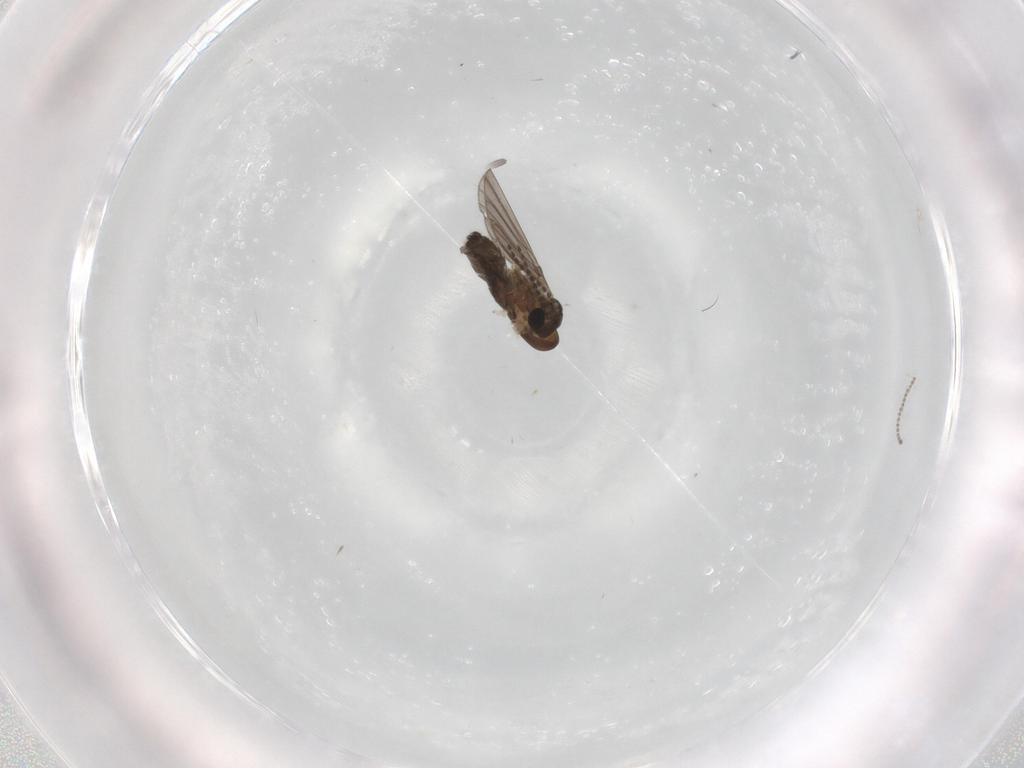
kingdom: Animalia
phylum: Arthropoda
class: Insecta
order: Diptera
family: Cecidomyiidae
